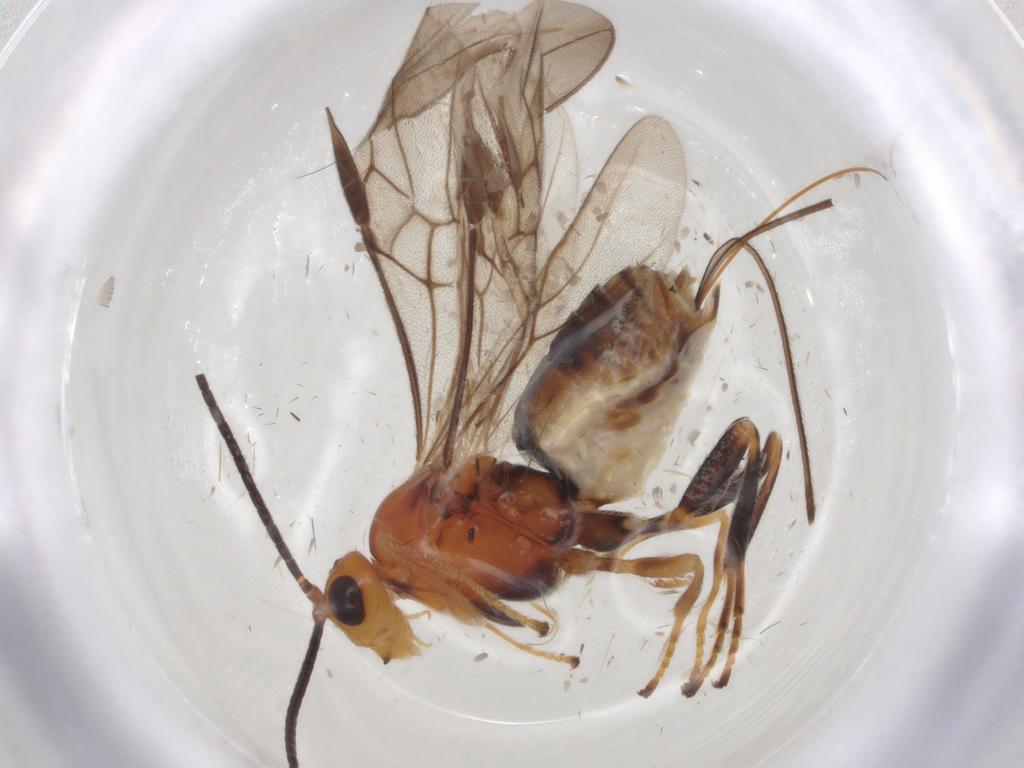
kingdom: Animalia
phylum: Arthropoda
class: Insecta
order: Hymenoptera
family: Braconidae
